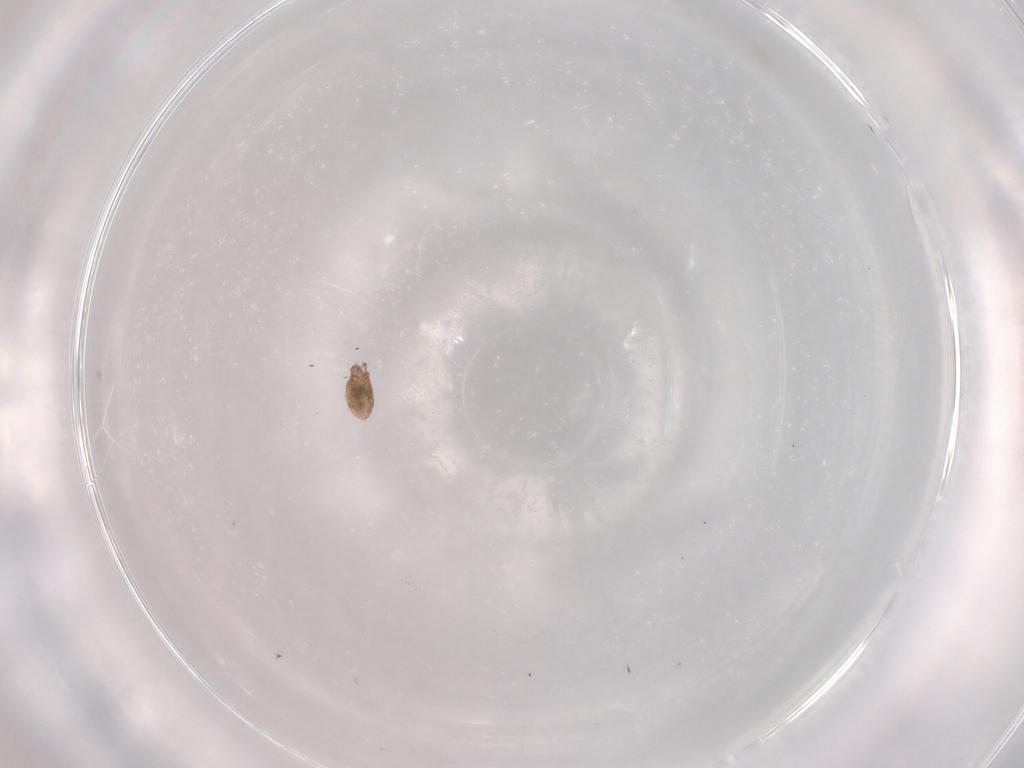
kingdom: Animalia
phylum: Arthropoda
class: Arachnida
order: Sarcoptiformes
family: Phenopelopidae
